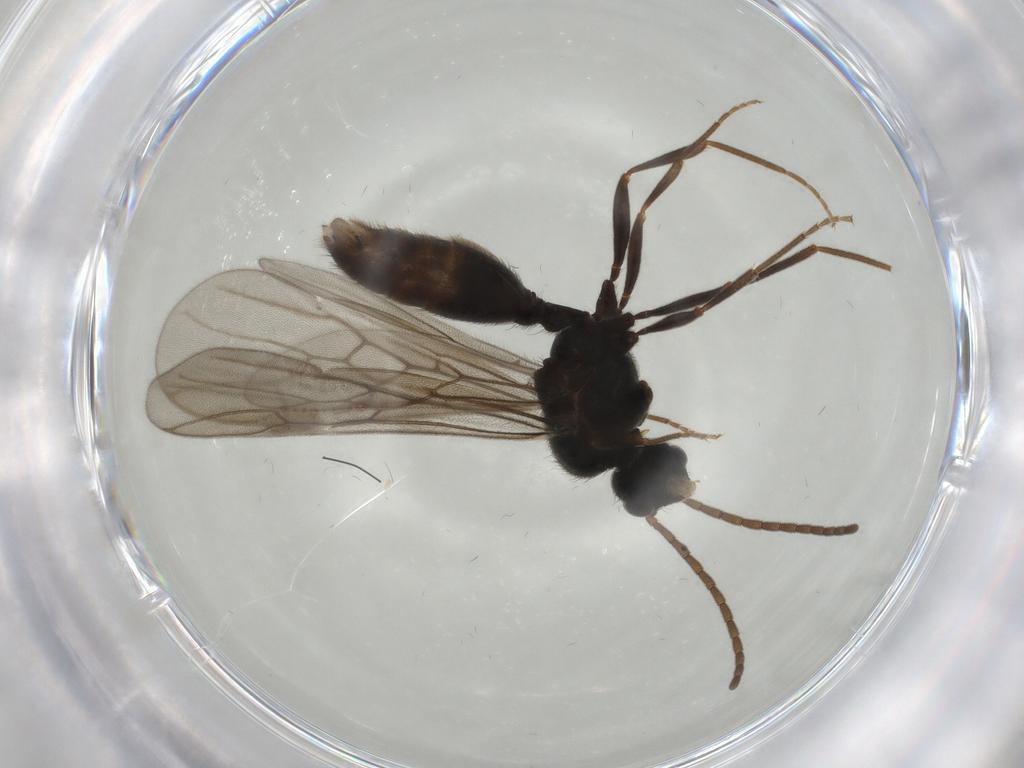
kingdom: Animalia
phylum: Arthropoda
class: Insecta
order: Hymenoptera
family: Formicidae
